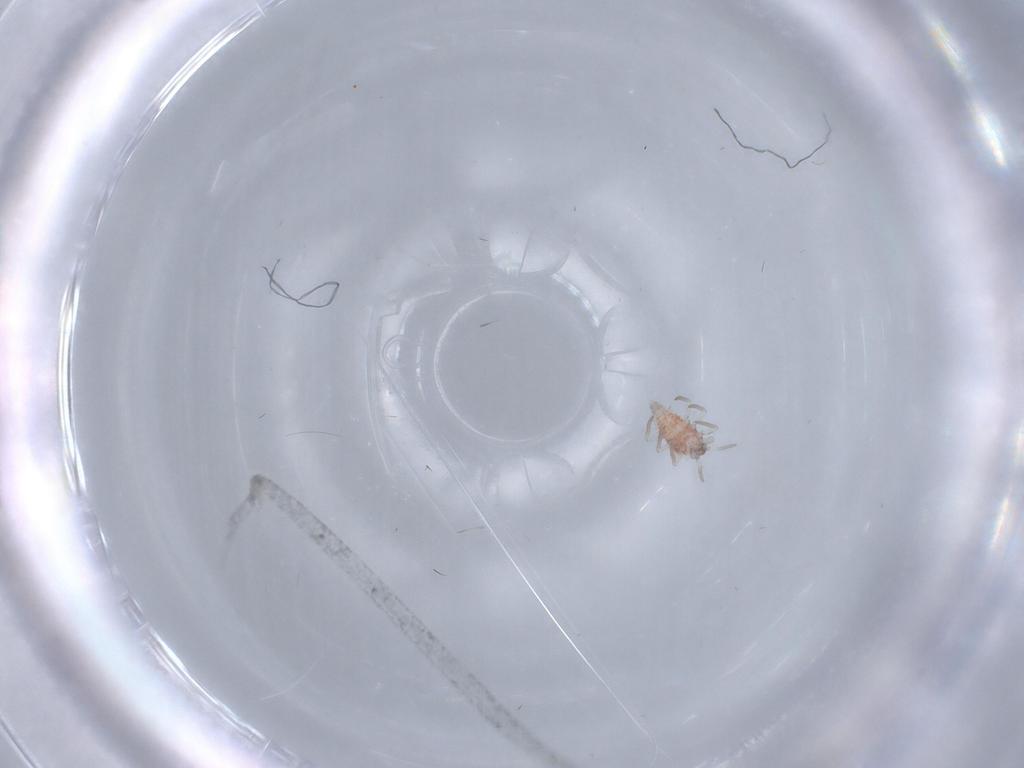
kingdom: Animalia
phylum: Arthropoda
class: Insecta
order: Neuroptera
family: Coniopterygidae
